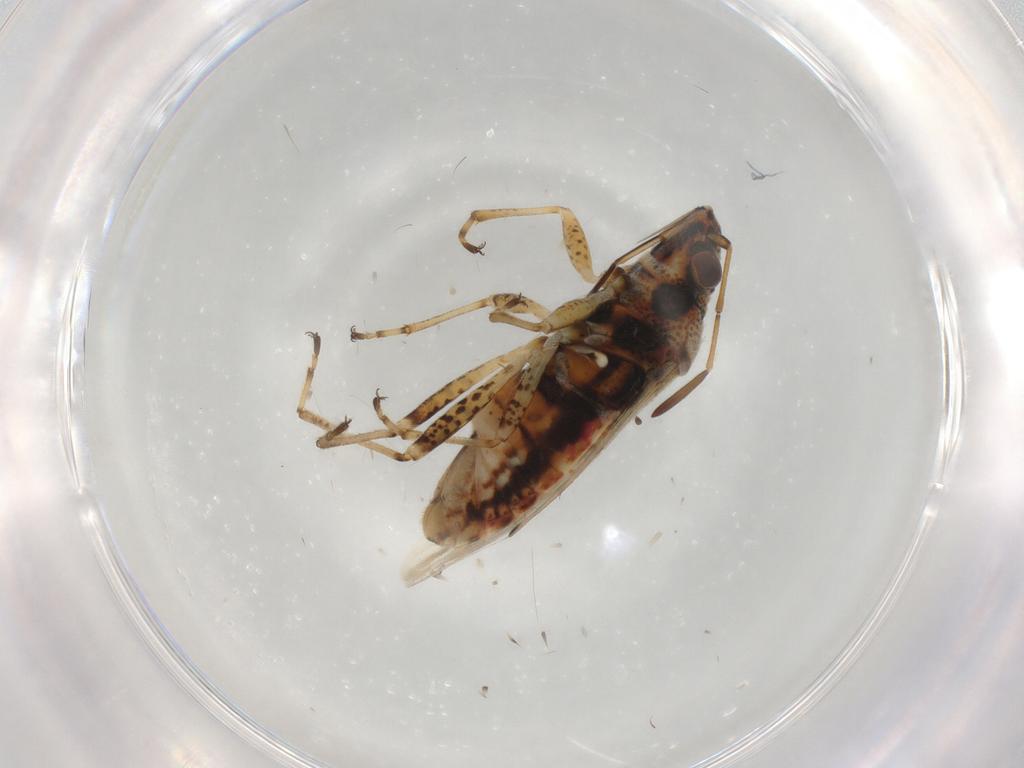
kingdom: Animalia
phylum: Arthropoda
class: Insecta
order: Hemiptera
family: Lygaeidae
